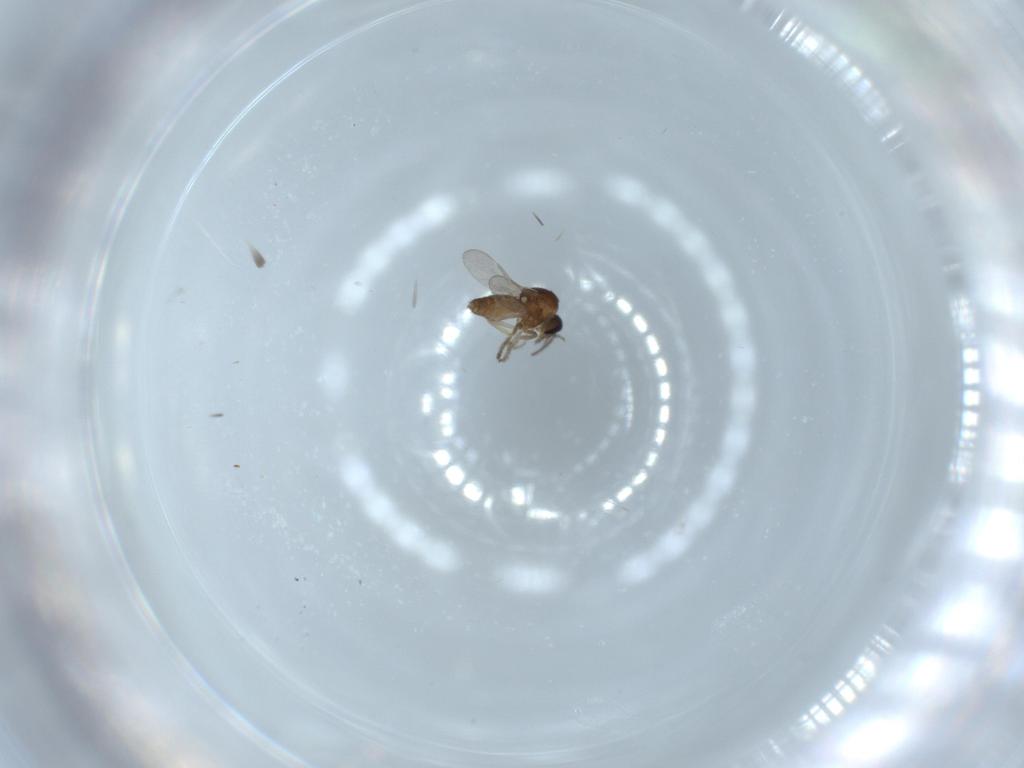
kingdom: Animalia
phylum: Arthropoda
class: Insecta
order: Diptera
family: Ceratopogonidae
